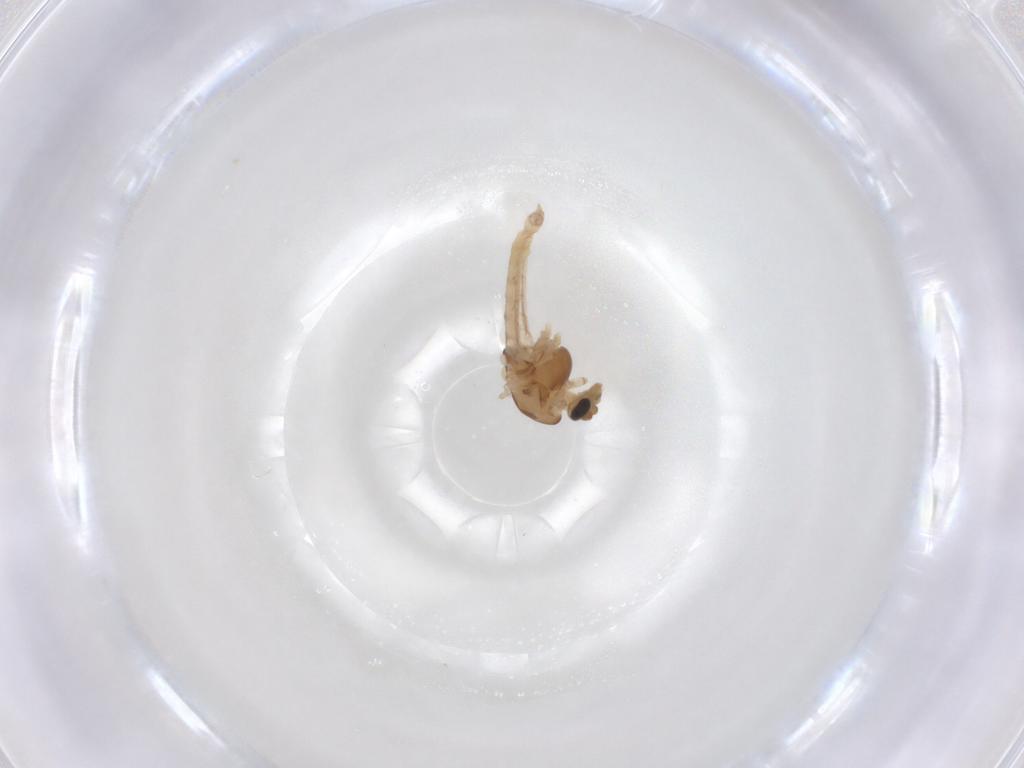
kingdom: Animalia
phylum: Arthropoda
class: Insecta
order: Diptera
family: Chironomidae
